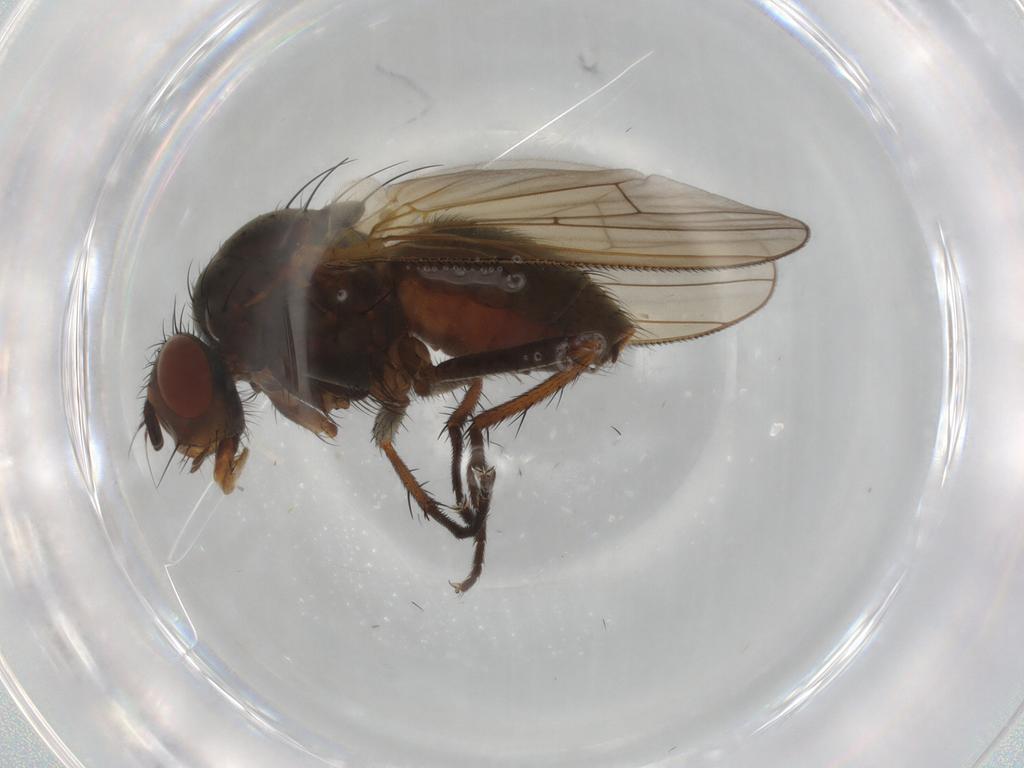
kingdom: Animalia
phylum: Arthropoda
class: Insecta
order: Diptera
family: Anthomyiidae
